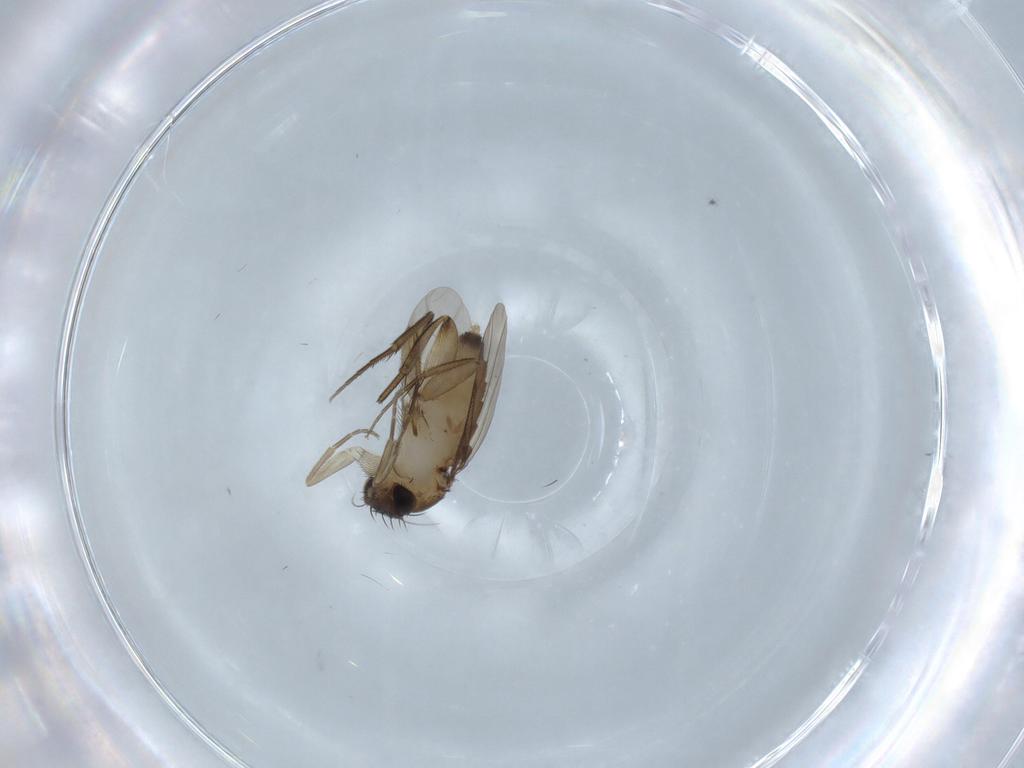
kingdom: Animalia
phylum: Arthropoda
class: Insecta
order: Diptera
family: Phoridae
